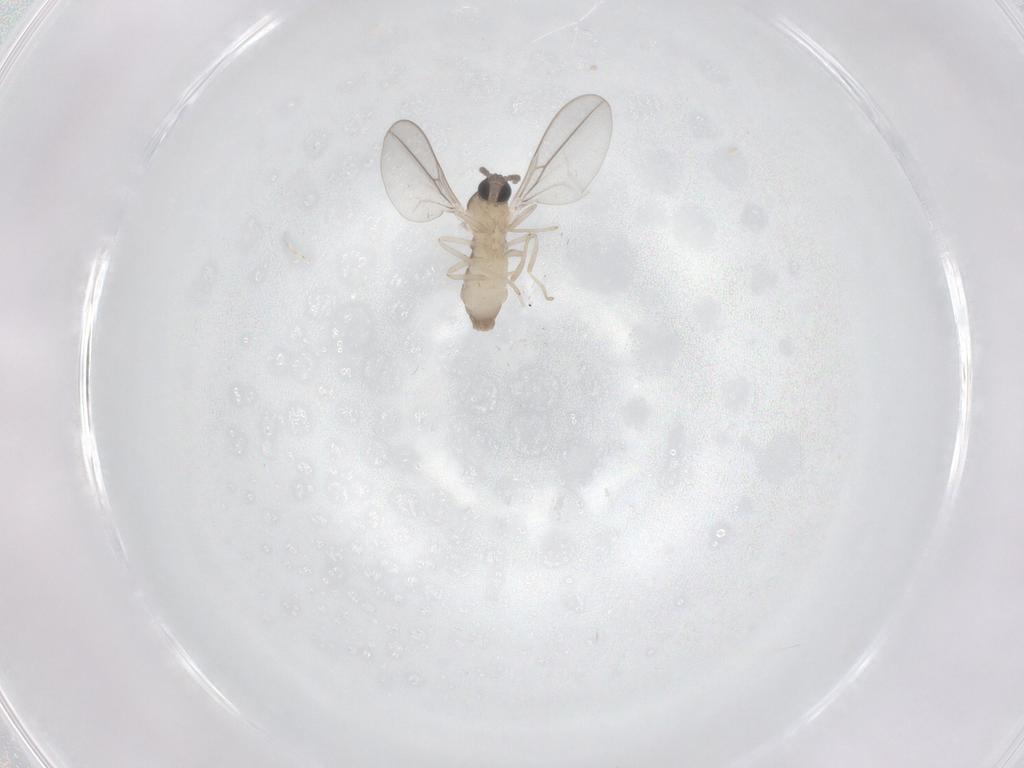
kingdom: Animalia
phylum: Arthropoda
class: Insecta
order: Diptera
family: Cecidomyiidae
